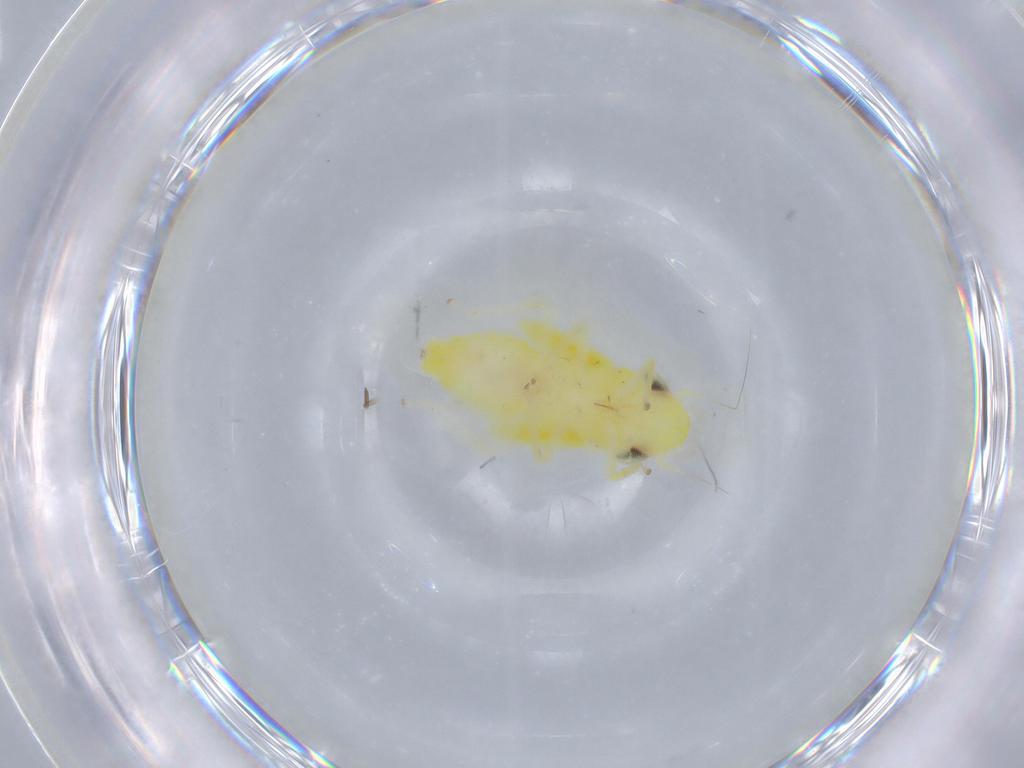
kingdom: Animalia
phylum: Arthropoda
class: Insecta
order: Hemiptera
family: Cicadellidae
